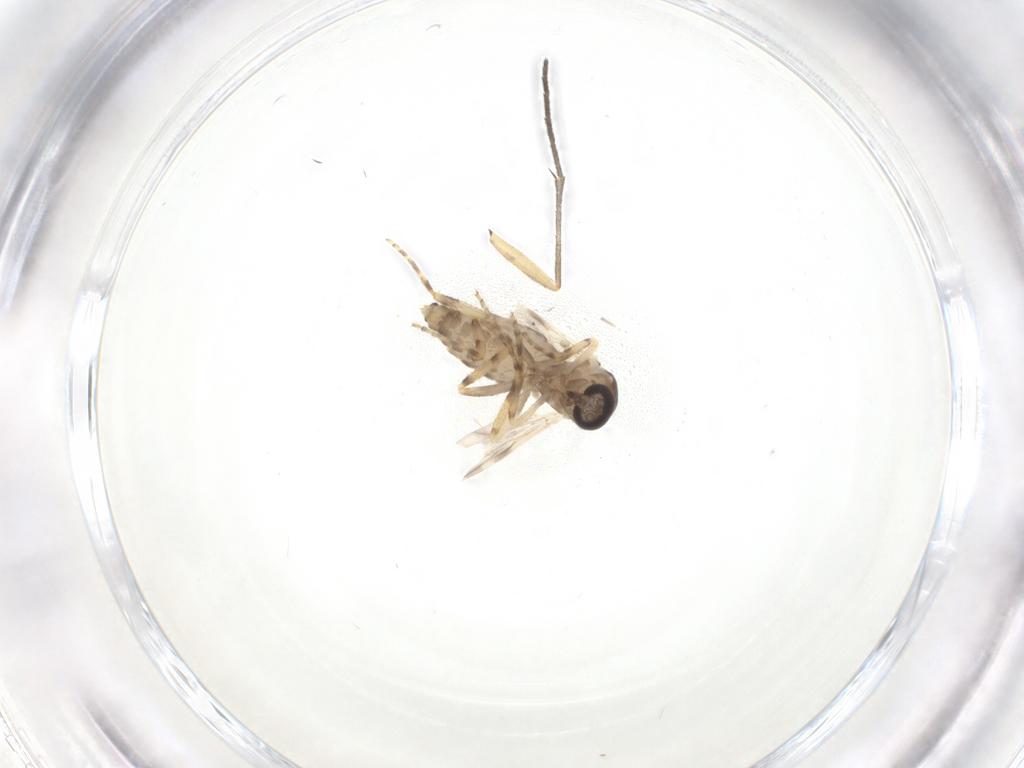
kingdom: Animalia
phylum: Arthropoda
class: Insecta
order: Diptera
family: Ceratopogonidae
